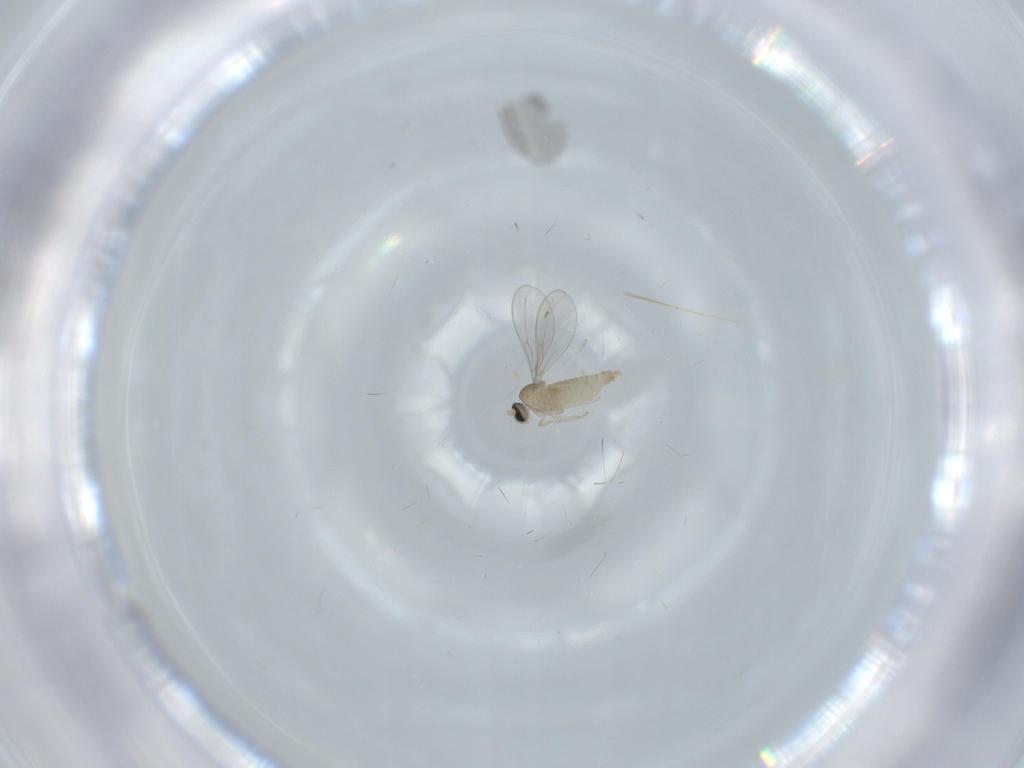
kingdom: Animalia
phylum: Arthropoda
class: Insecta
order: Diptera
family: Cecidomyiidae
